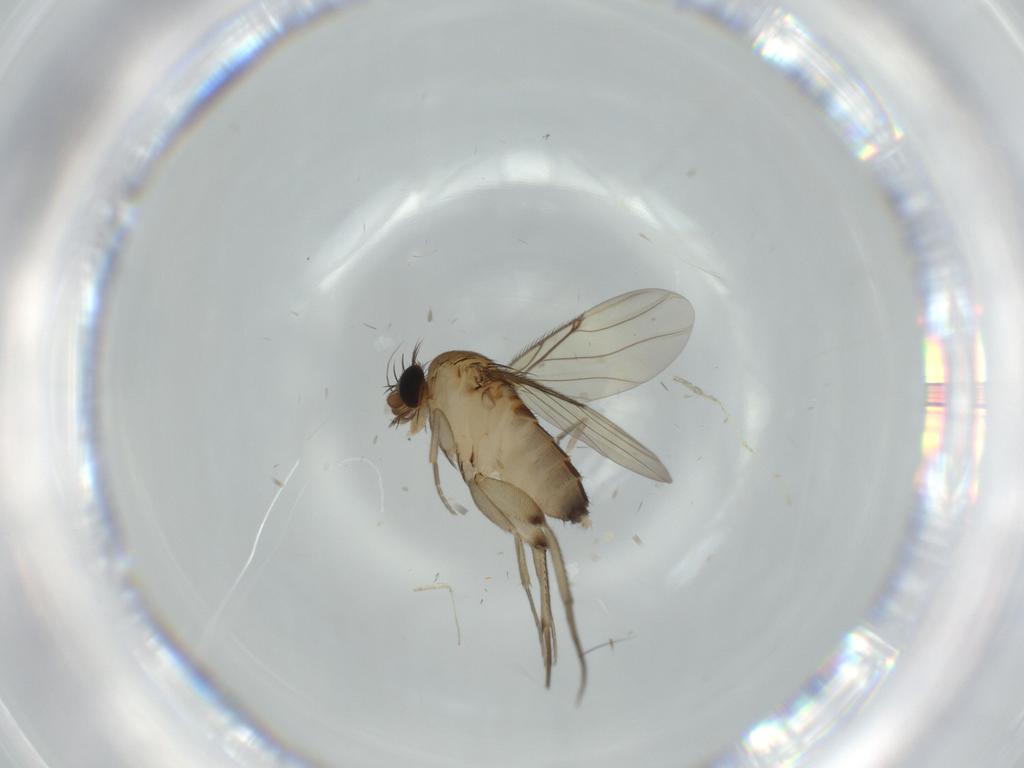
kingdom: Animalia
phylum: Arthropoda
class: Insecta
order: Diptera
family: Phoridae
